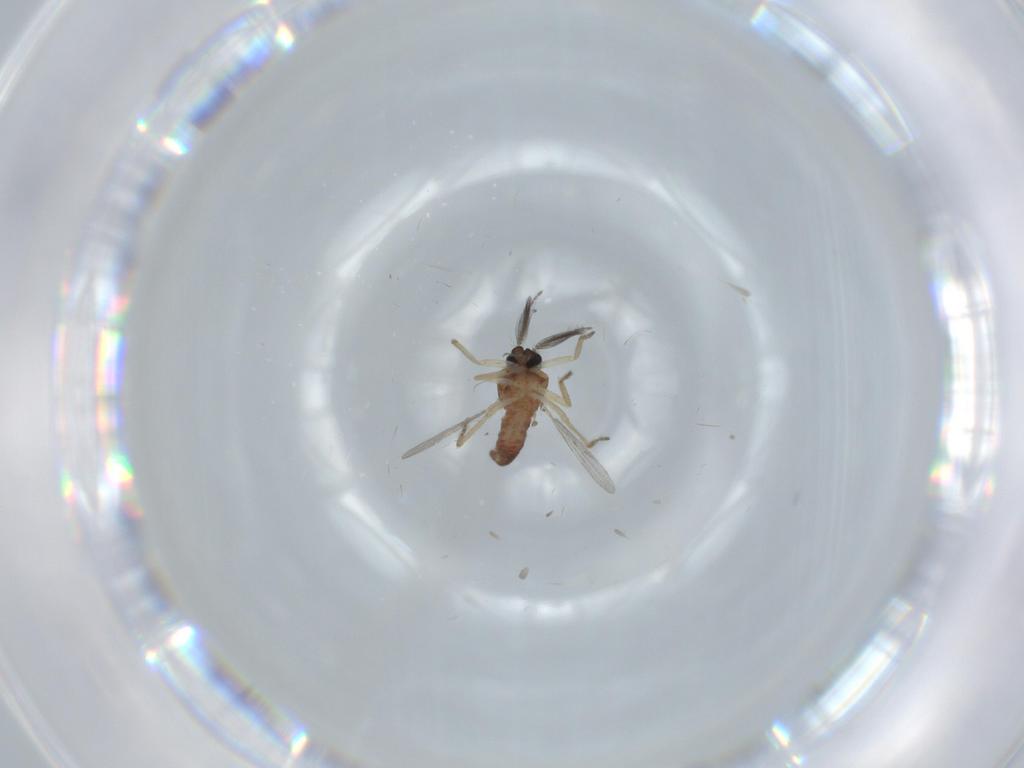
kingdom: Animalia
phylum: Arthropoda
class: Insecta
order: Diptera
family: Ceratopogonidae
